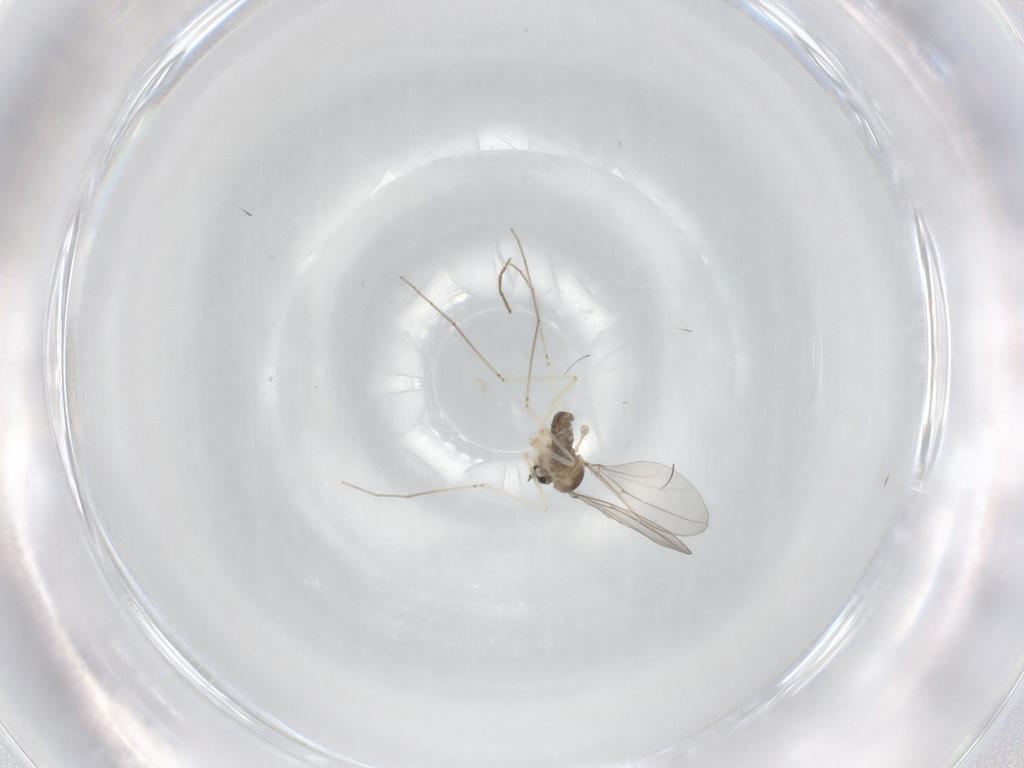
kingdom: Animalia
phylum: Arthropoda
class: Insecta
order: Diptera
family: Cecidomyiidae
